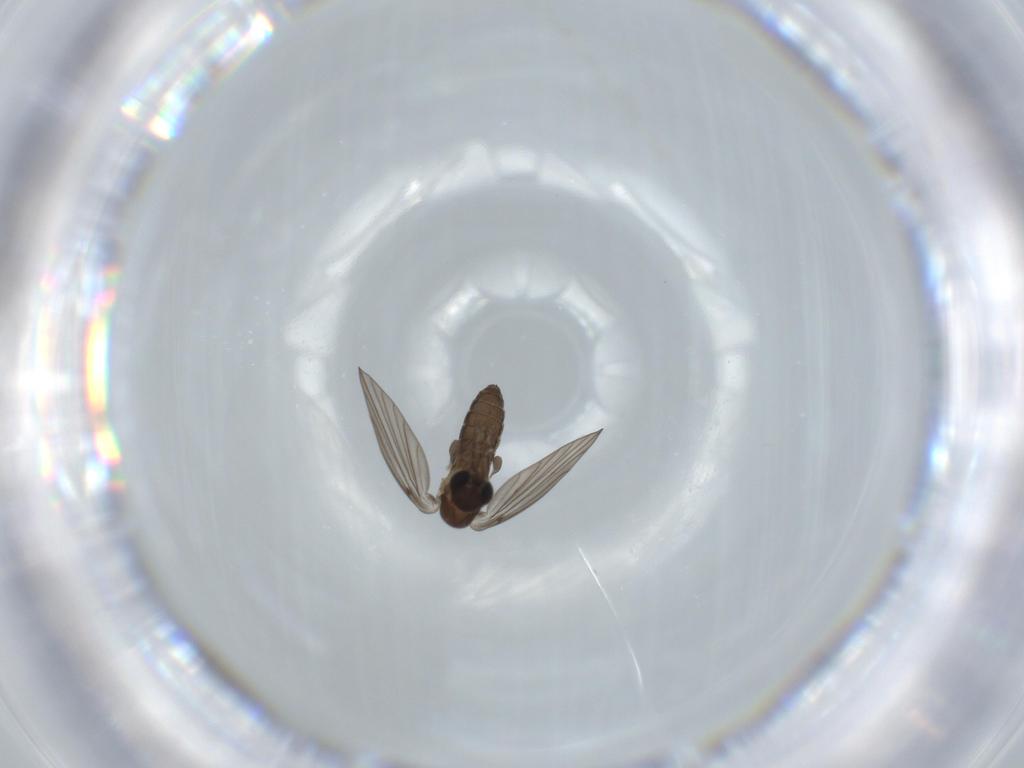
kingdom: Animalia
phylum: Arthropoda
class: Insecta
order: Diptera
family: Psychodidae
